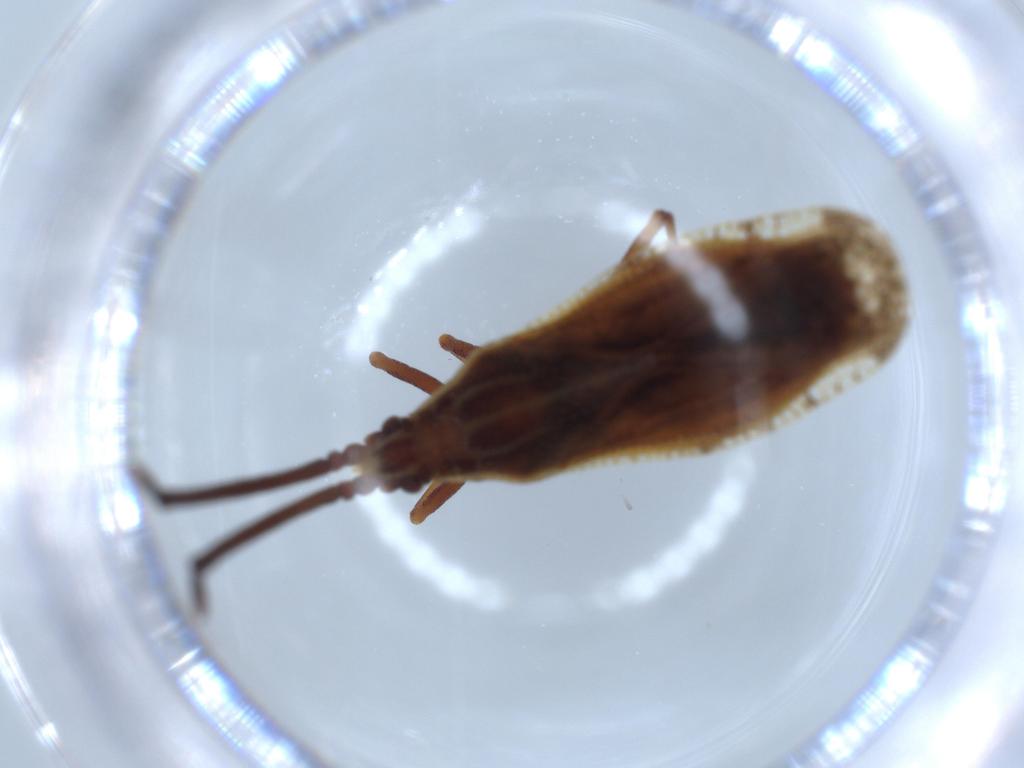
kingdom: Animalia
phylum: Arthropoda
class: Insecta
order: Hemiptera
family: Tingidae
